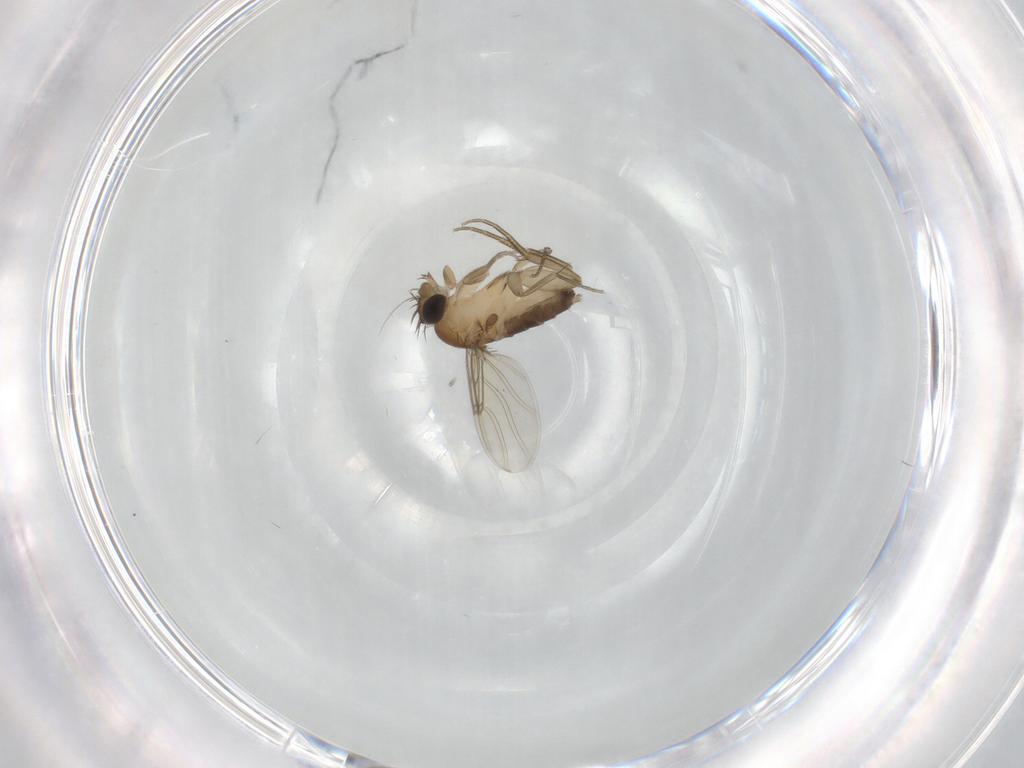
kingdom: Animalia
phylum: Arthropoda
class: Insecta
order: Diptera
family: Phoridae
